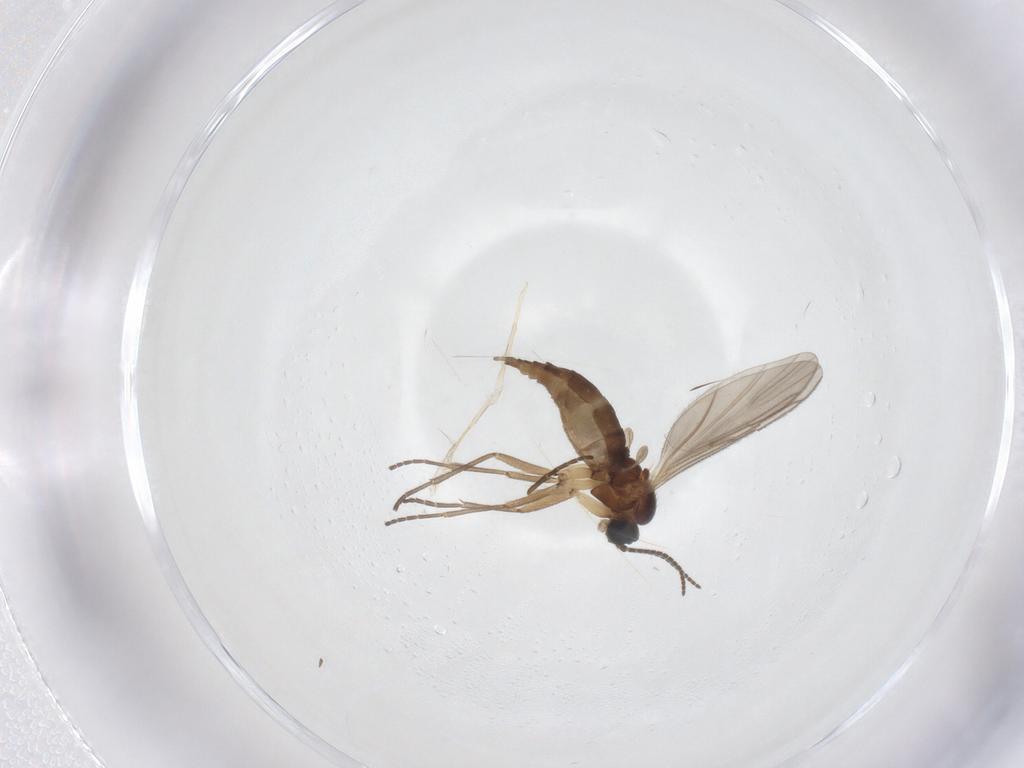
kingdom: Animalia
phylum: Arthropoda
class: Insecta
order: Diptera
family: Sciaridae
